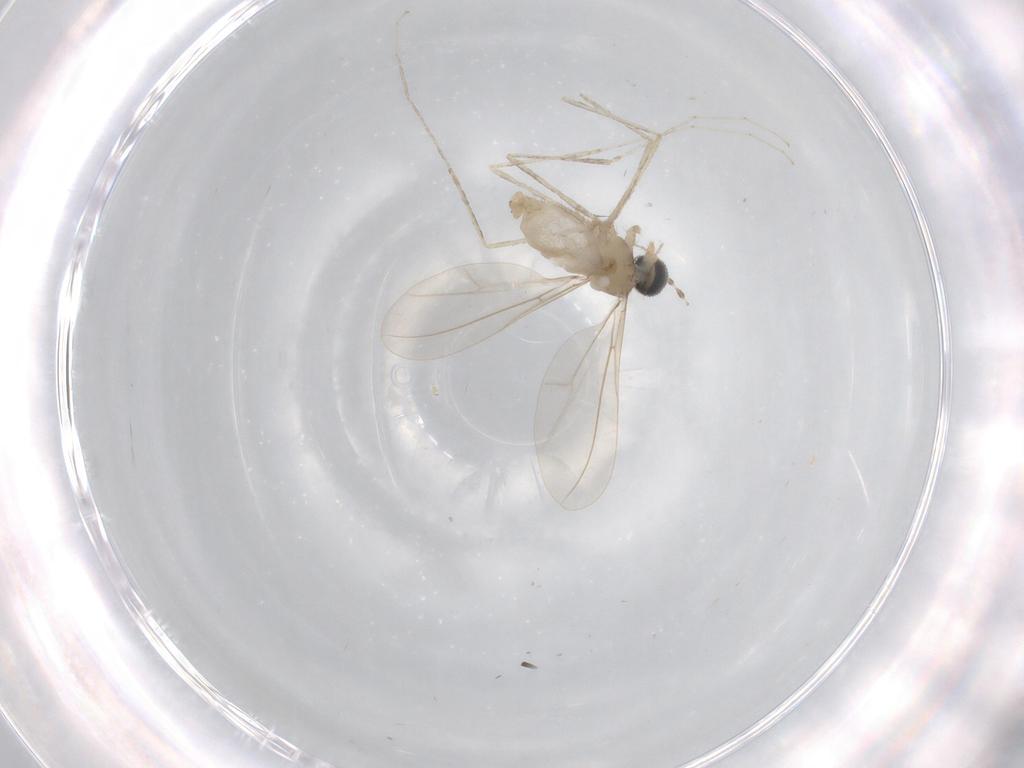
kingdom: Animalia
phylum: Arthropoda
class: Insecta
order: Diptera
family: Cecidomyiidae
